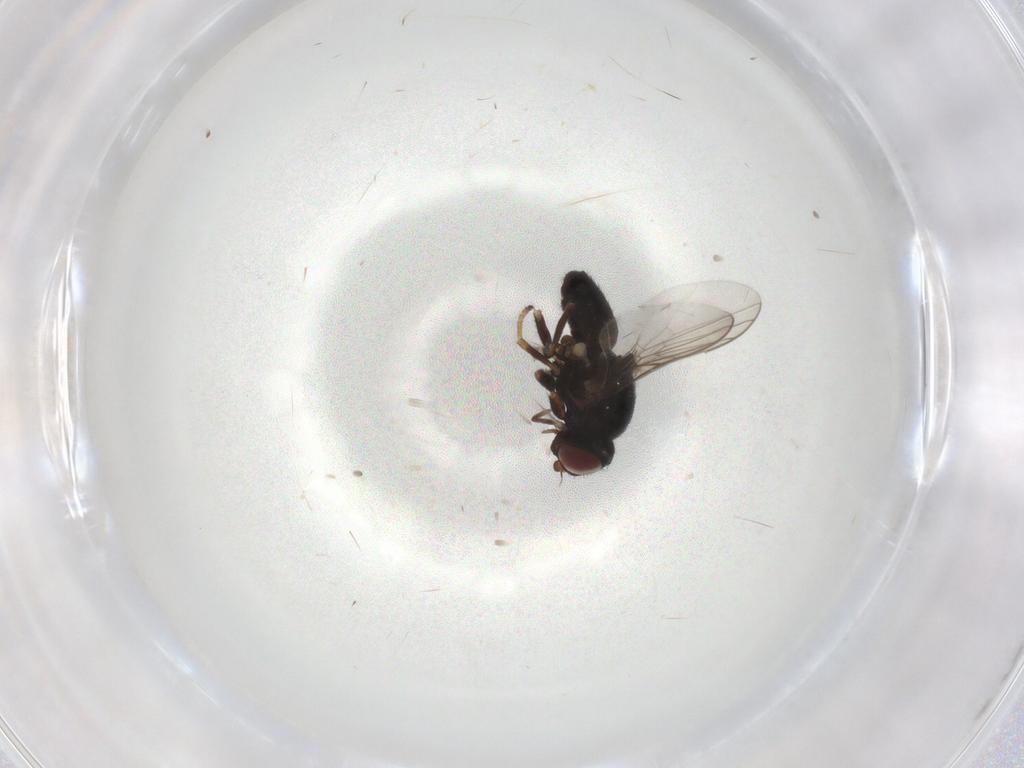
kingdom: Animalia
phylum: Arthropoda
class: Insecta
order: Diptera
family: Chloropidae
